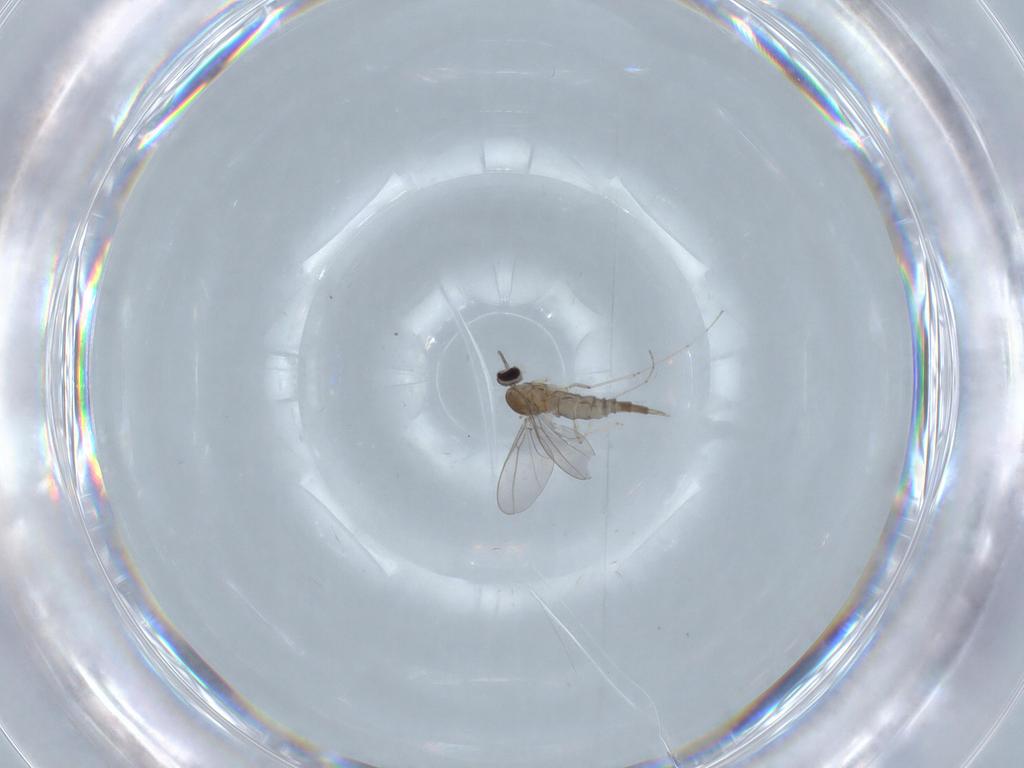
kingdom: Animalia
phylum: Arthropoda
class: Insecta
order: Diptera
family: Cecidomyiidae
